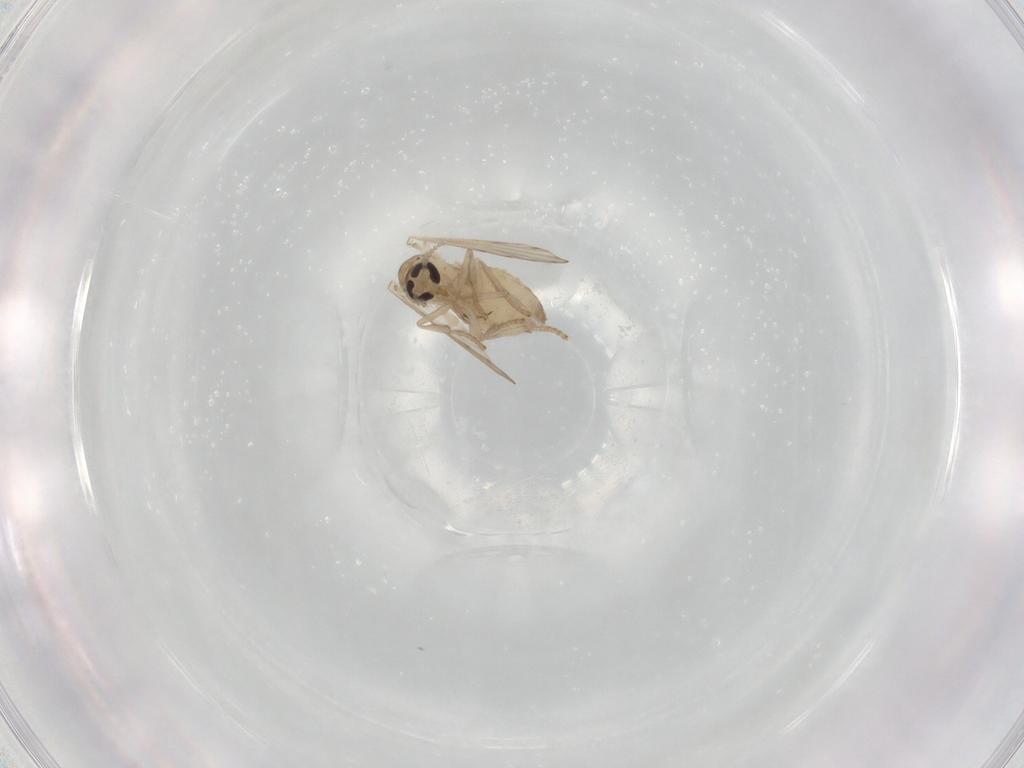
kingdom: Animalia
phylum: Arthropoda
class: Insecta
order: Diptera
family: Psychodidae
